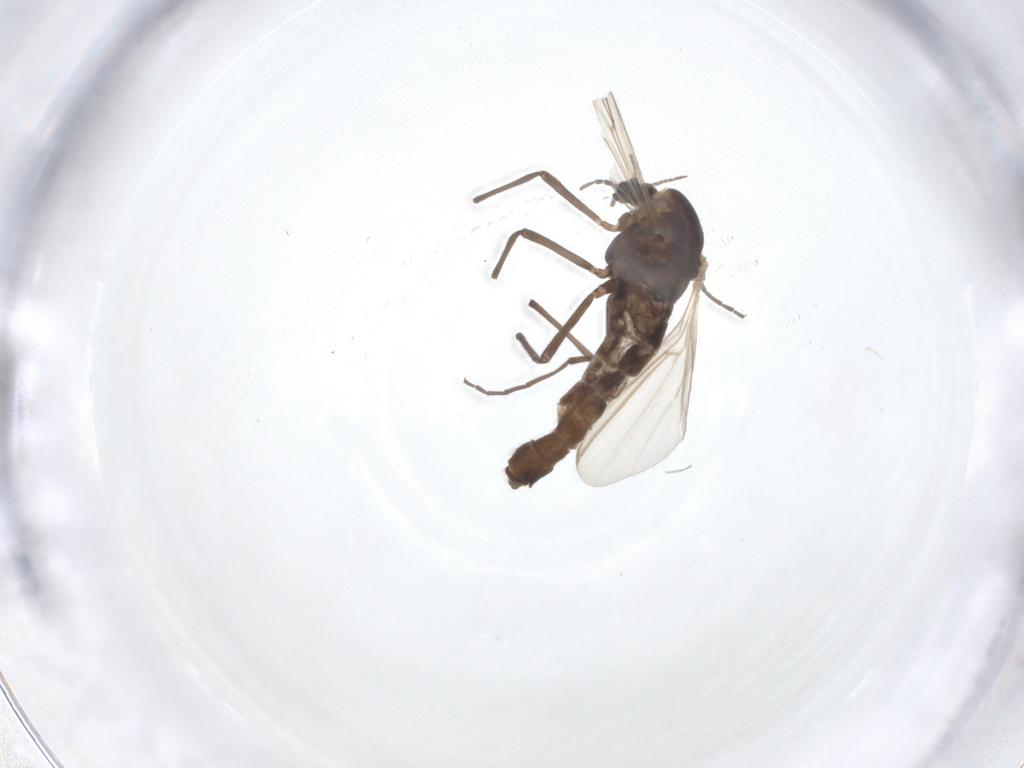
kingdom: Animalia
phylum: Arthropoda
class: Insecta
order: Diptera
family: Chironomidae
